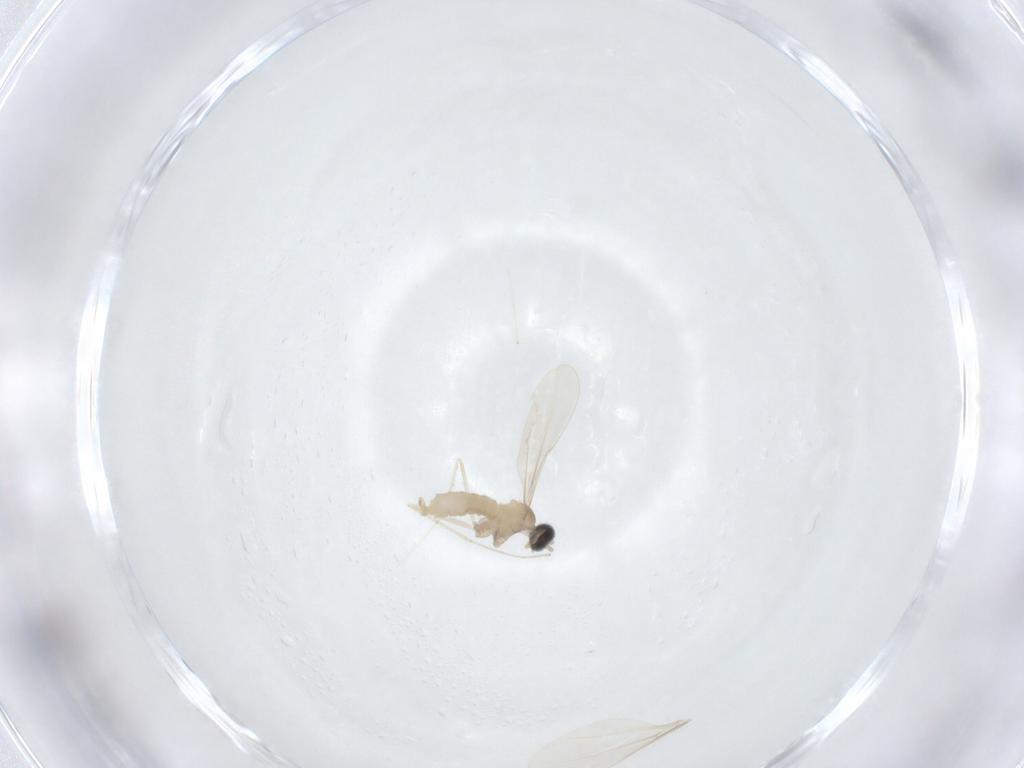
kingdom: Animalia
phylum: Arthropoda
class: Insecta
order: Diptera
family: Cecidomyiidae
